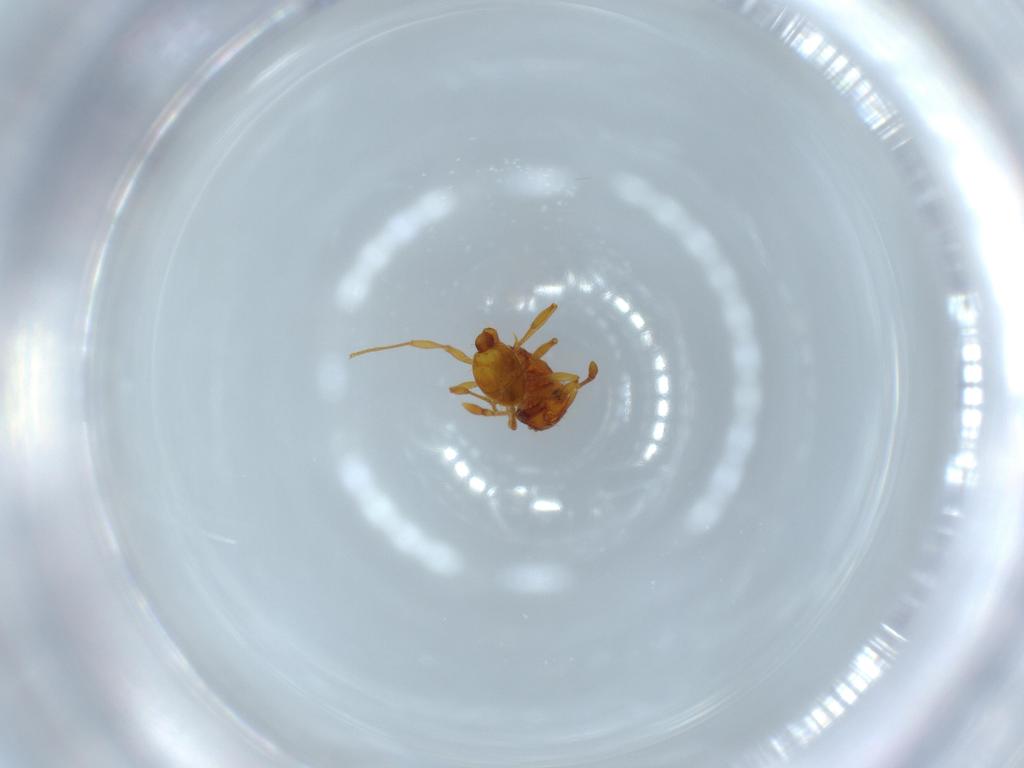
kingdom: Animalia
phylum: Arthropoda
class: Insecta
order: Hymenoptera
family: Formicidae
